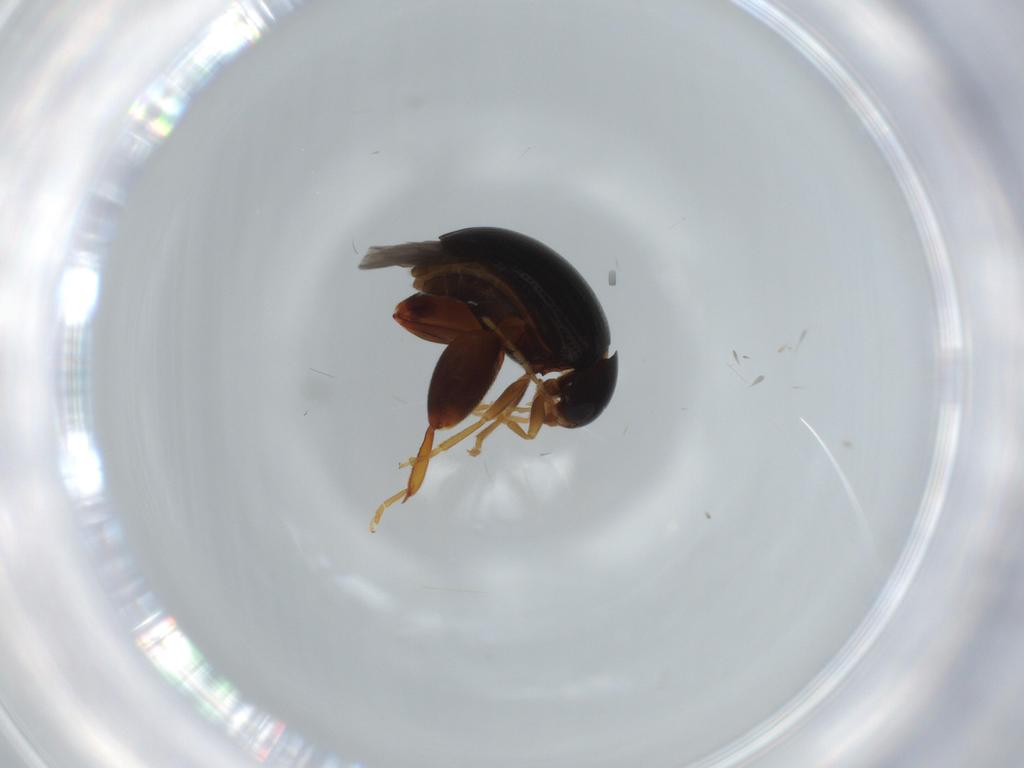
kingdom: Animalia
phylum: Arthropoda
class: Insecta
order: Coleoptera
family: Chrysomelidae
